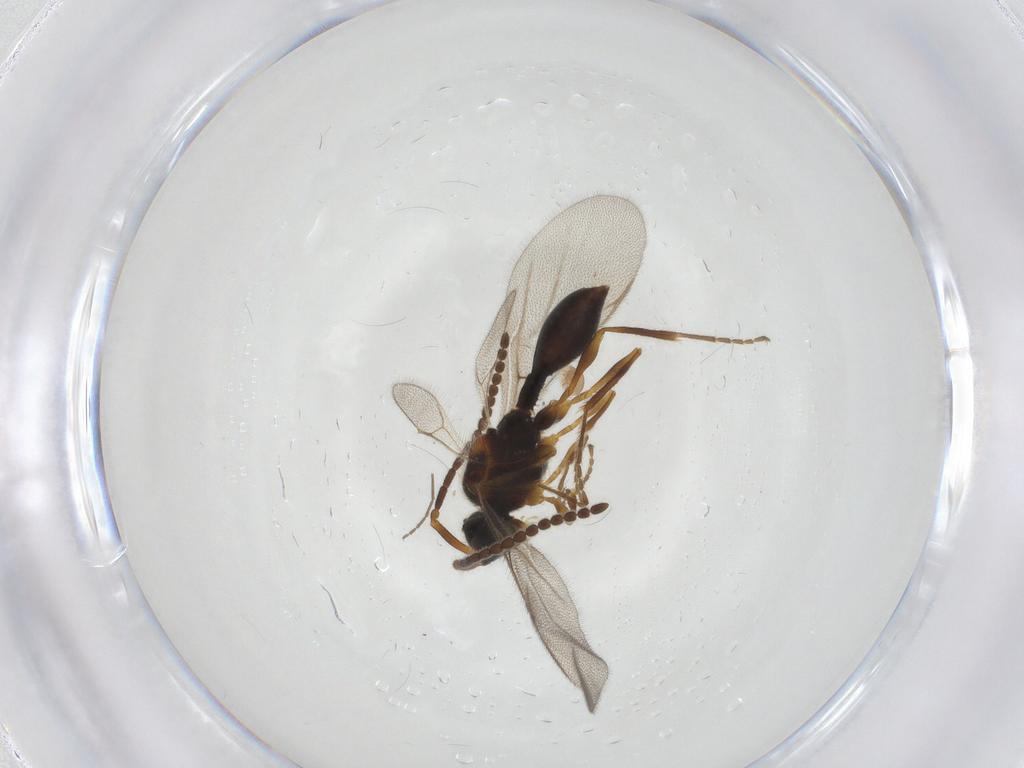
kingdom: Animalia
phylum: Arthropoda
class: Insecta
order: Hymenoptera
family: Diapriidae
